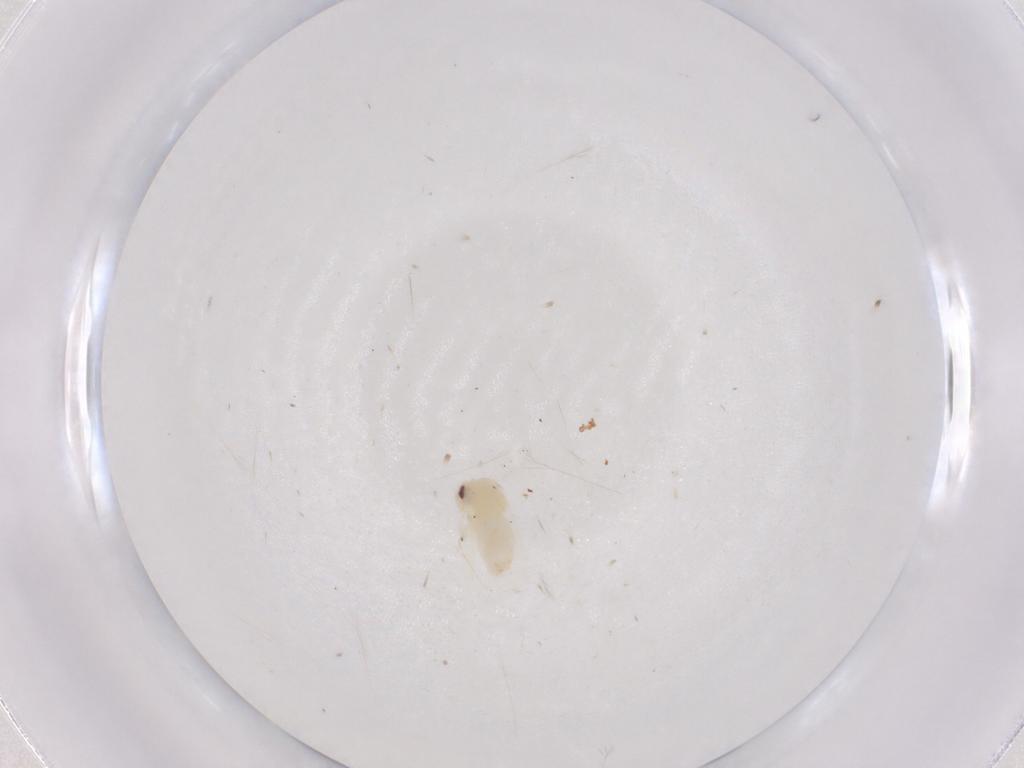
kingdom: Animalia
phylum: Arthropoda
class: Insecta
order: Hemiptera
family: Aleyrodidae
